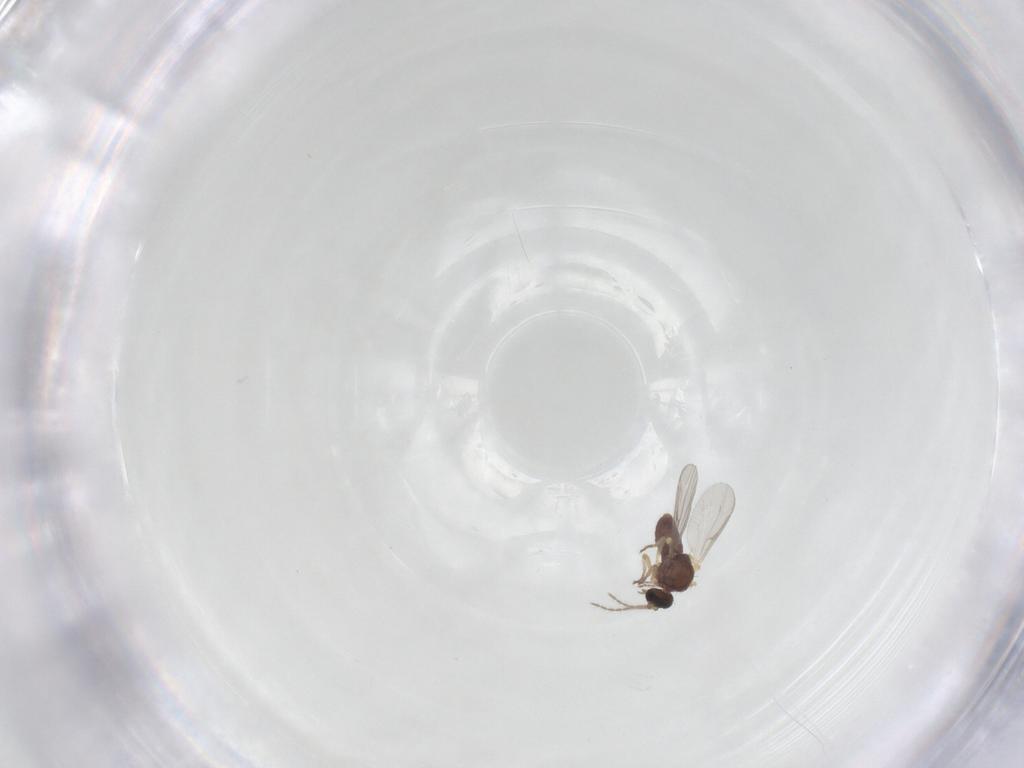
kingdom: Animalia
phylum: Arthropoda
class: Insecta
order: Diptera
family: Ceratopogonidae
